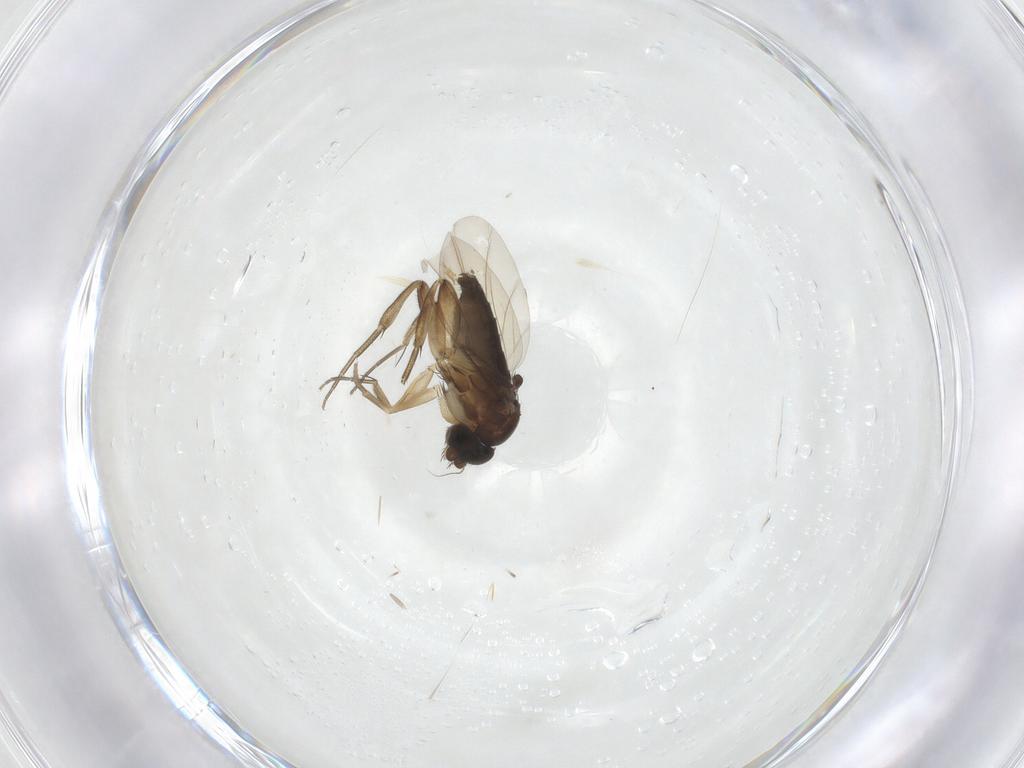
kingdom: Animalia
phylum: Arthropoda
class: Insecta
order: Diptera
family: Phoridae
